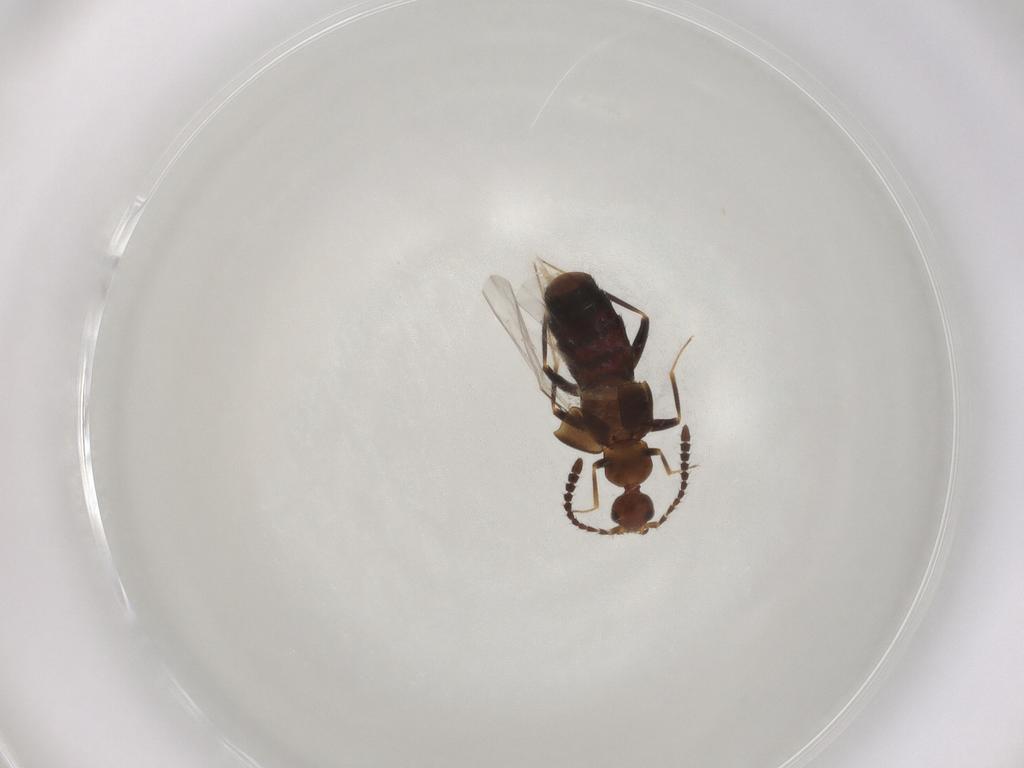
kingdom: Animalia
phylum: Arthropoda
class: Insecta
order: Coleoptera
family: Staphylinidae
